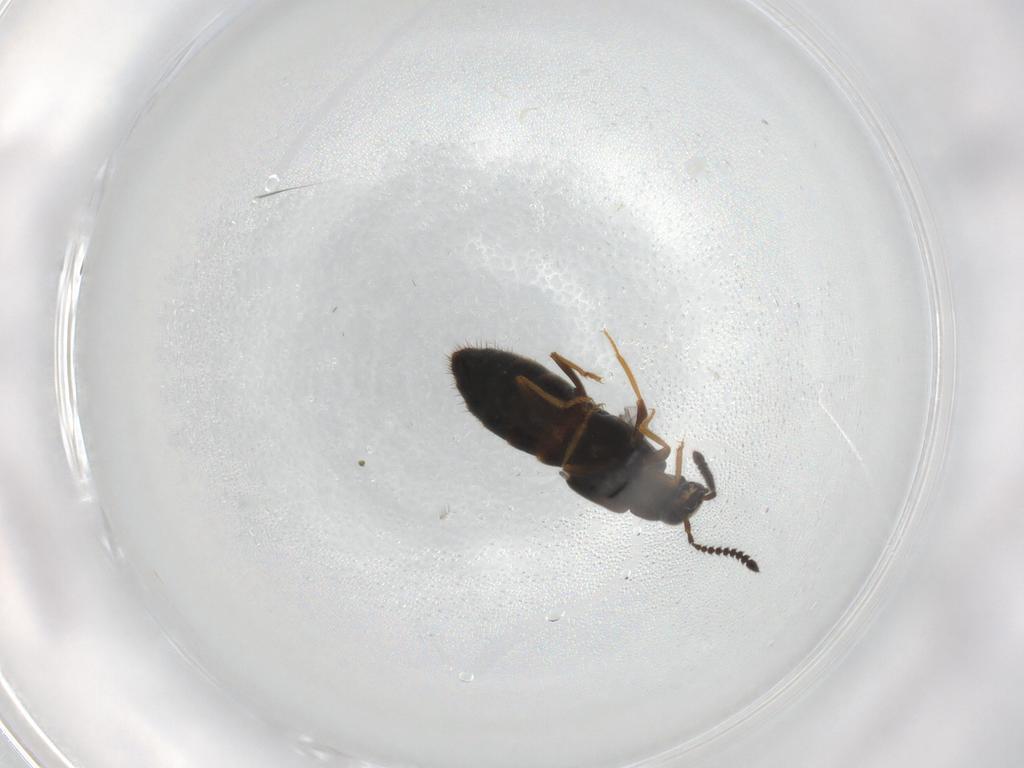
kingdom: Animalia
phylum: Arthropoda
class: Insecta
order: Coleoptera
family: Staphylinidae
